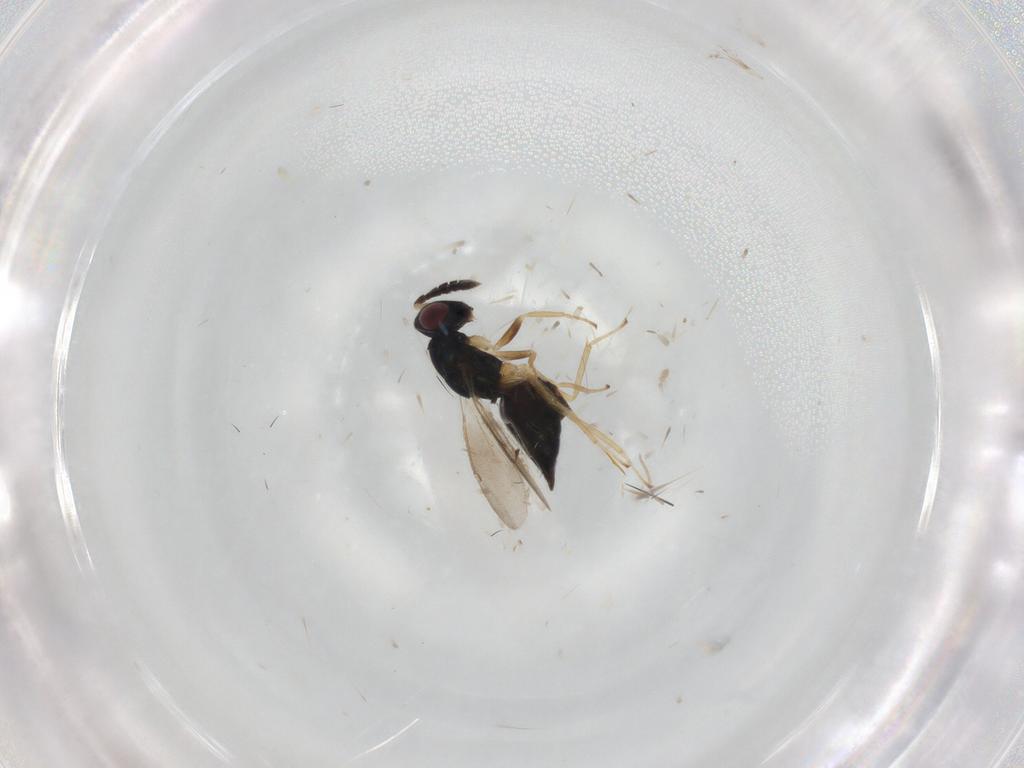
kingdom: Animalia
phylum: Arthropoda
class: Insecta
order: Hymenoptera
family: Eulophidae
